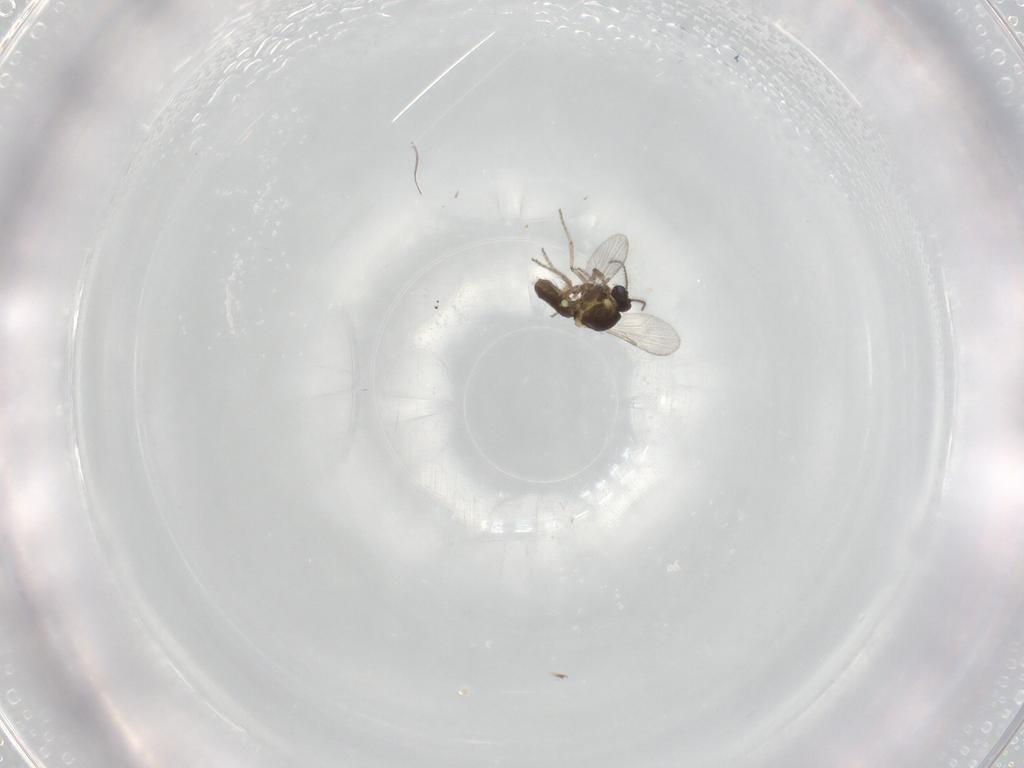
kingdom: Animalia
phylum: Arthropoda
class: Insecta
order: Diptera
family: Ceratopogonidae
